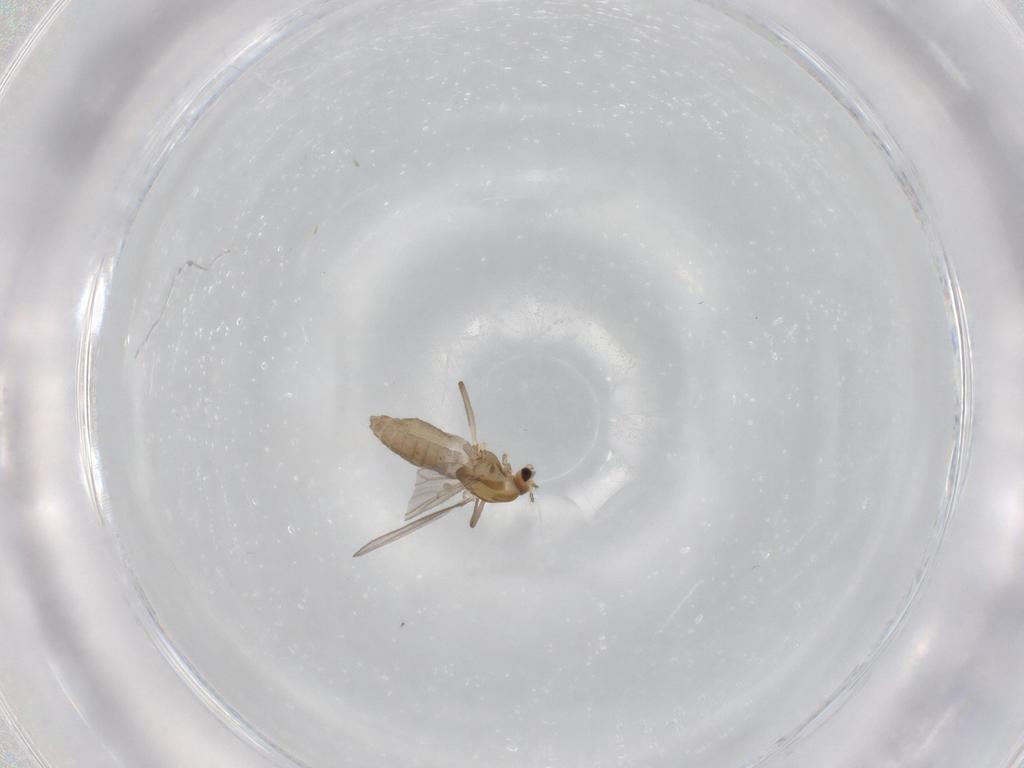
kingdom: Animalia
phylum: Arthropoda
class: Insecta
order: Diptera
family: Chironomidae
